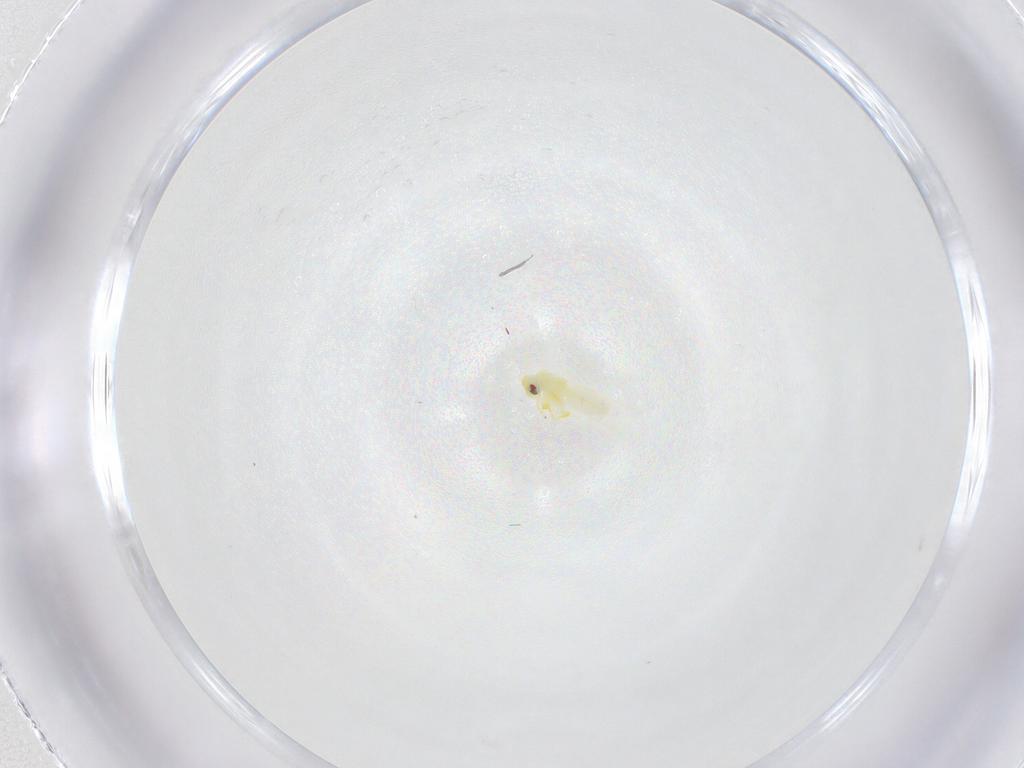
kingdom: Animalia
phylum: Arthropoda
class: Insecta
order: Hemiptera
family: Aleyrodidae
